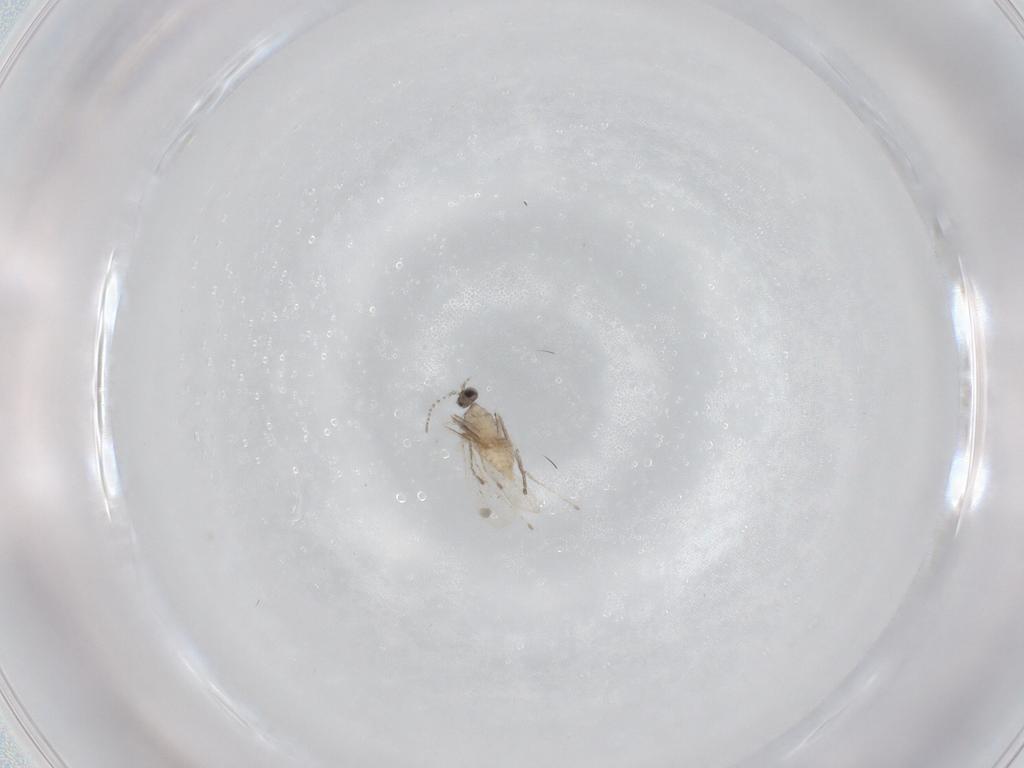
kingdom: Animalia
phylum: Arthropoda
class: Insecta
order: Diptera
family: Cecidomyiidae
